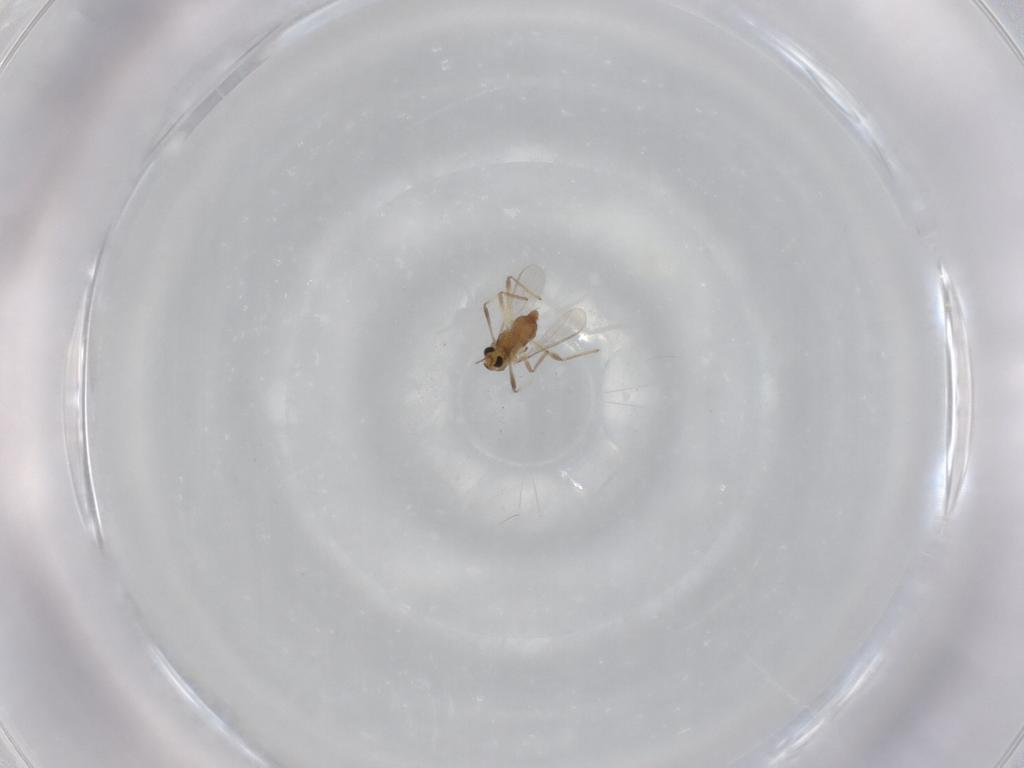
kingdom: Animalia
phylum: Arthropoda
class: Insecta
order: Diptera
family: Chironomidae
